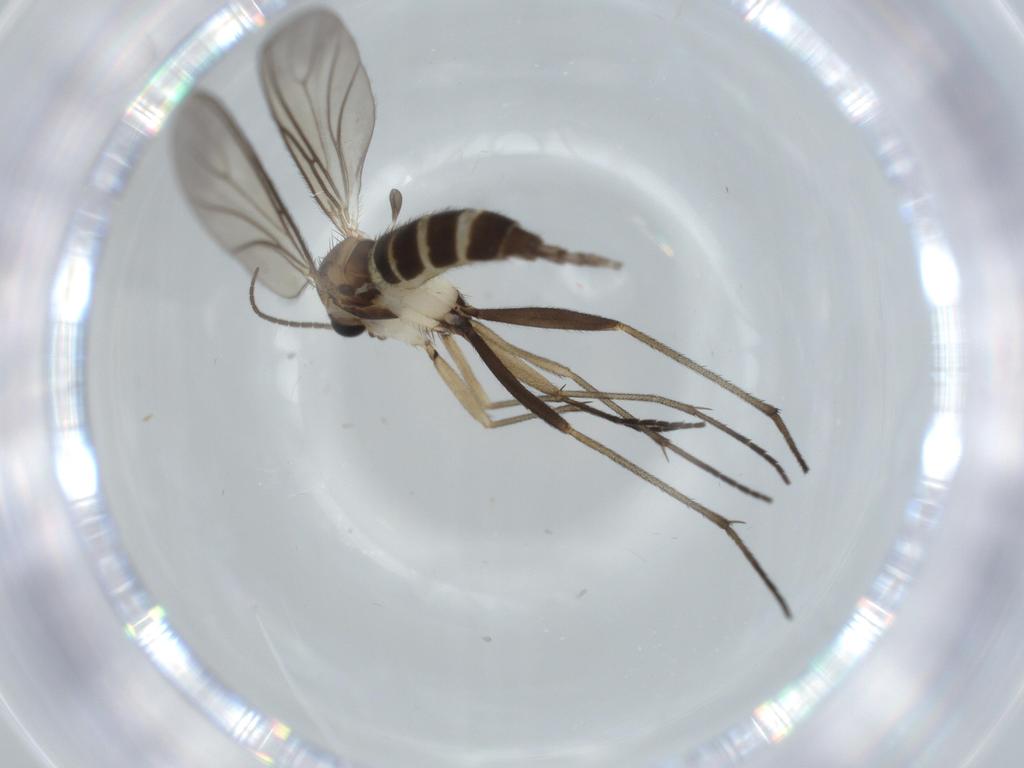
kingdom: Animalia
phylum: Arthropoda
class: Insecta
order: Diptera
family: Sciaridae
